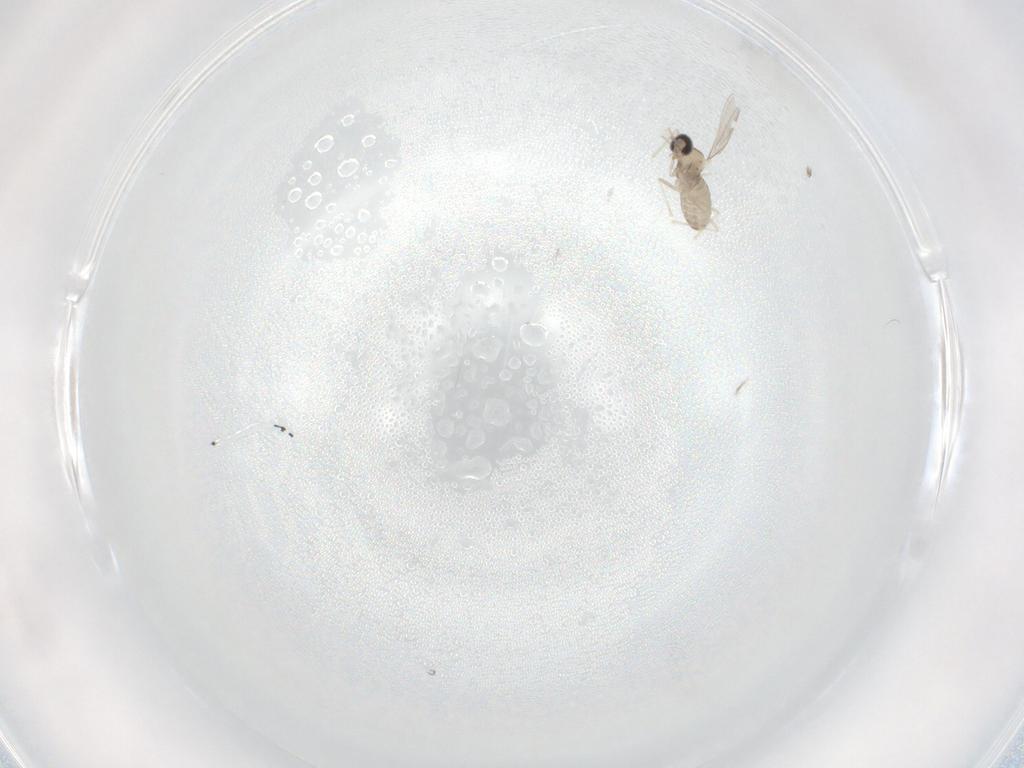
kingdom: Animalia
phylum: Arthropoda
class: Insecta
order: Diptera
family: Cecidomyiidae
